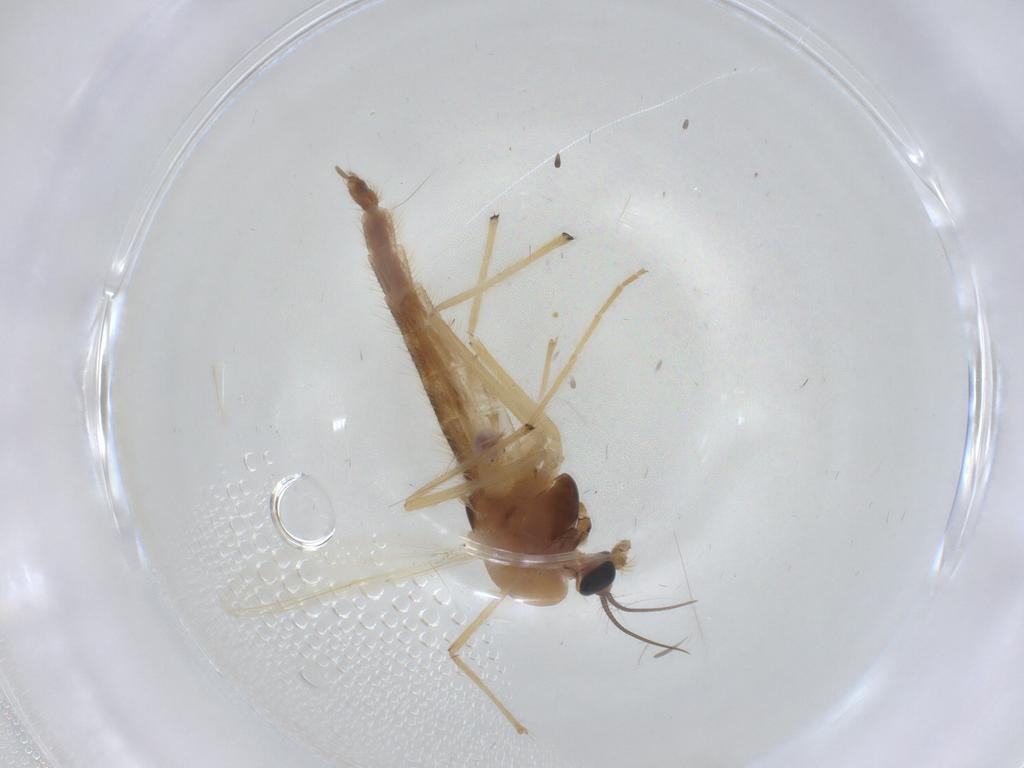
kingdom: Animalia
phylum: Arthropoda
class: Insecta
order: Diptera
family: Chironomidae
